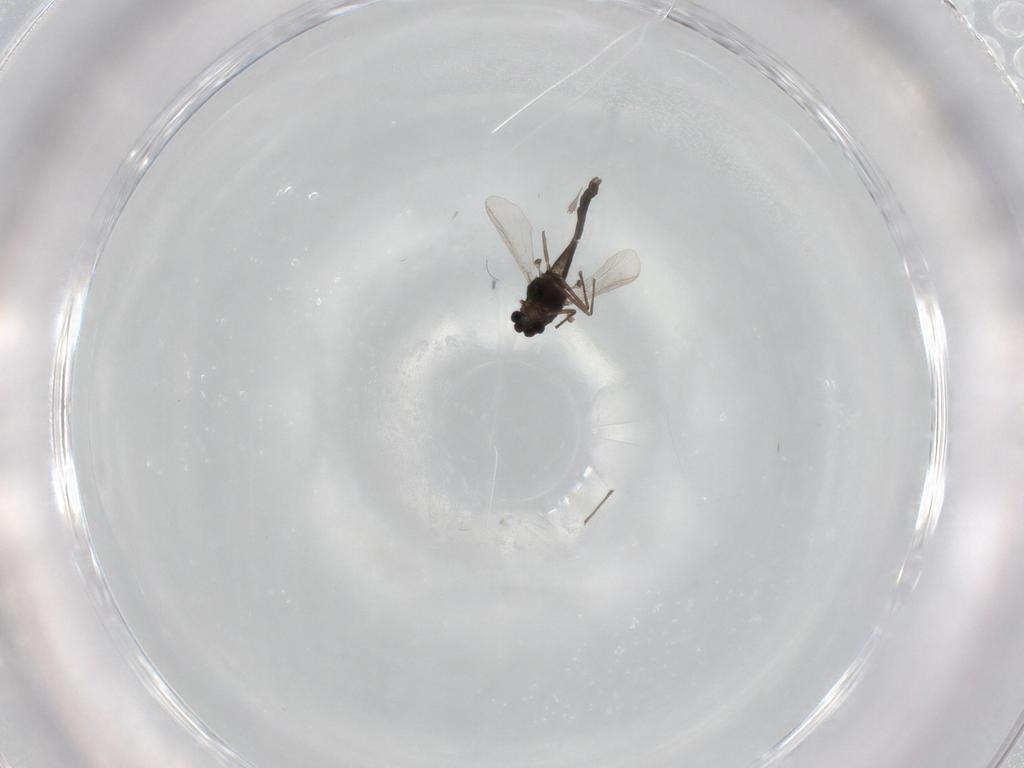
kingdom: Animalia
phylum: Arthropoda
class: Insecta
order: Diptera
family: Chironomidae
